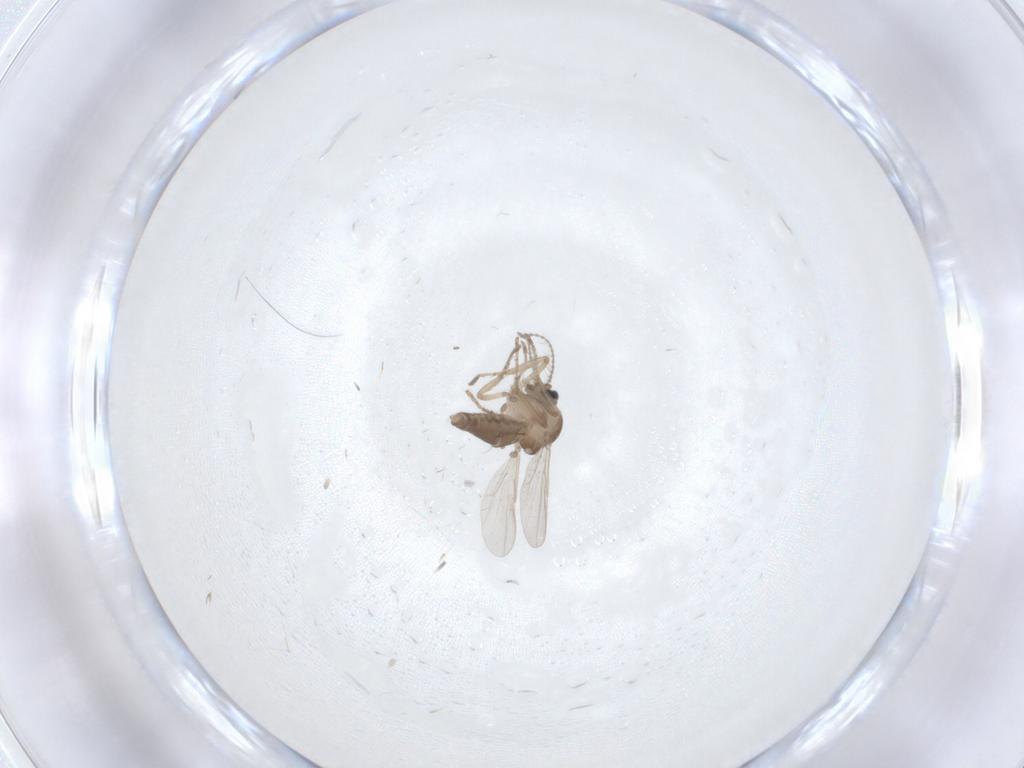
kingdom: Animalia
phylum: Arthropoda
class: Insecta
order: Diptera
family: Ceratopogonidae
